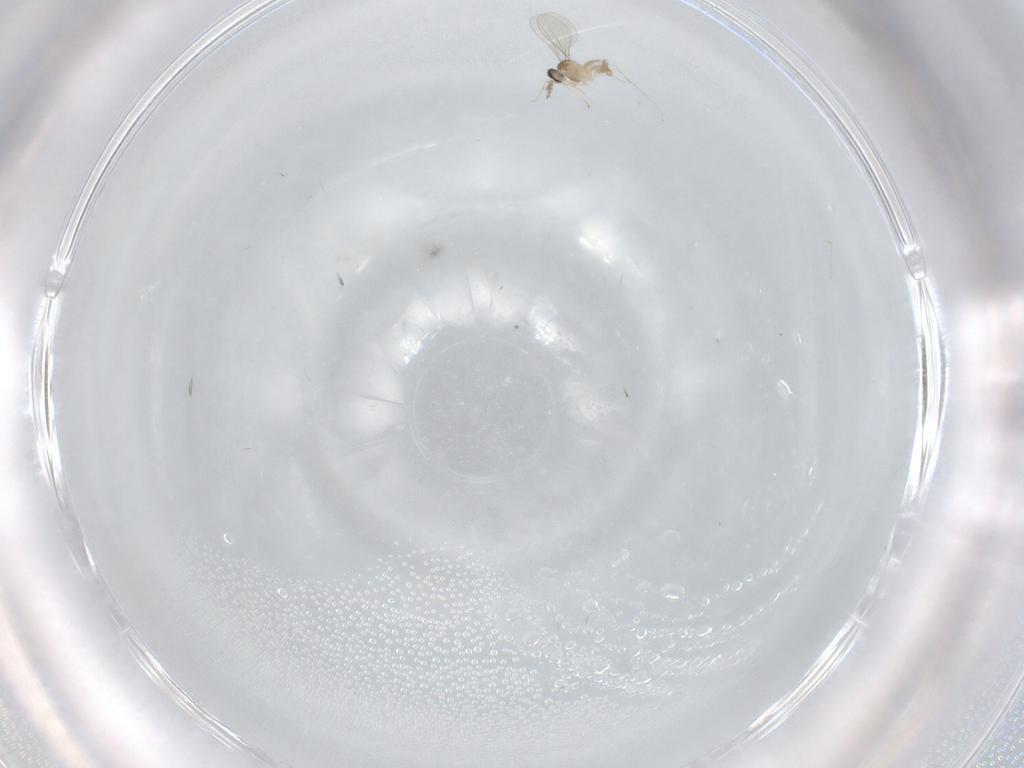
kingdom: Animalia
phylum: Arthropoda
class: Insecta
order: Diptera
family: Cecidomyiidae
